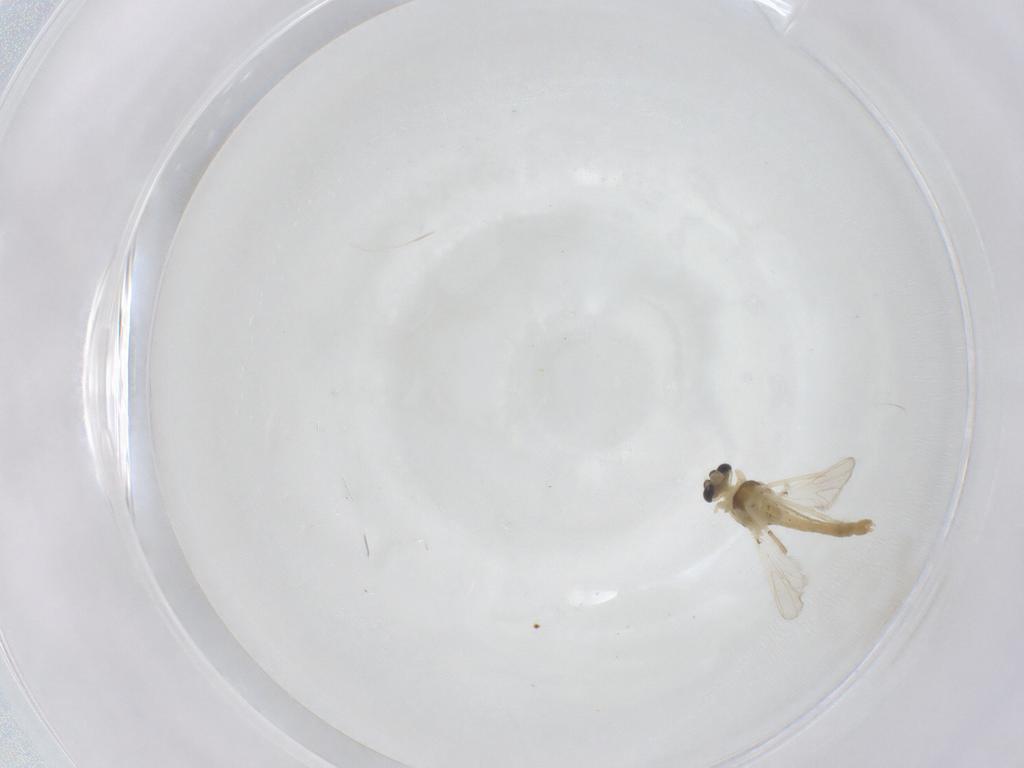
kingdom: Animalia
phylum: Arthropoda
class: Insecta
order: Diptera
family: Chironomidae
